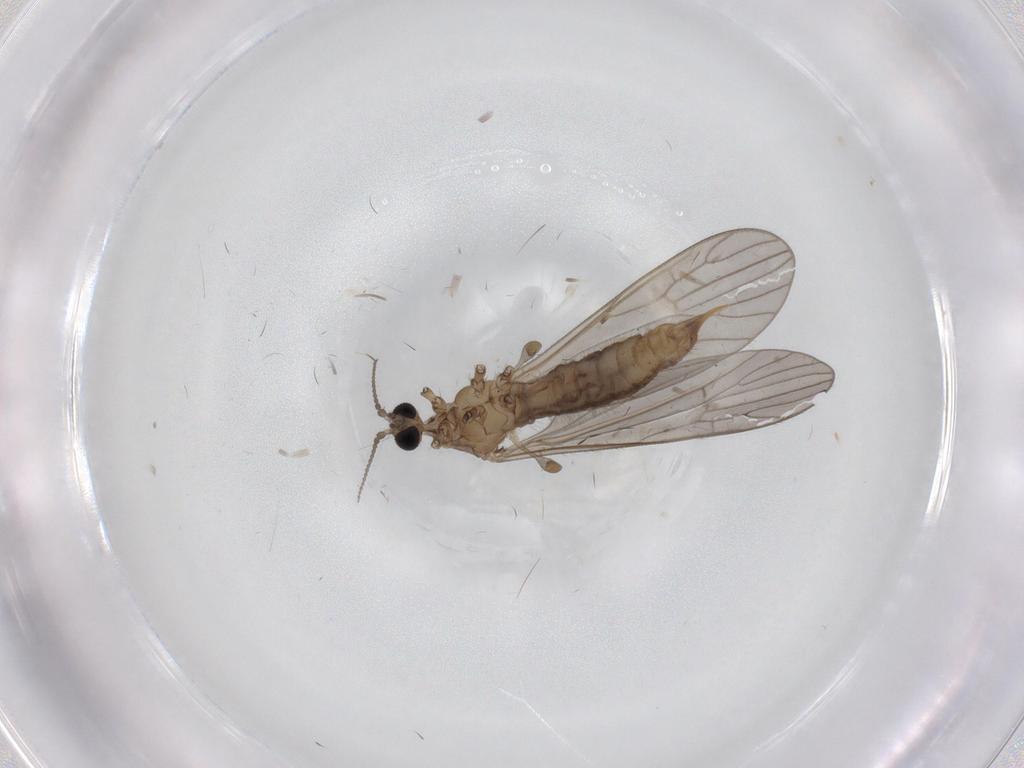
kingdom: Animalia
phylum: Arthropoda
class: Insecta
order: Diptera
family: Limoniidae
